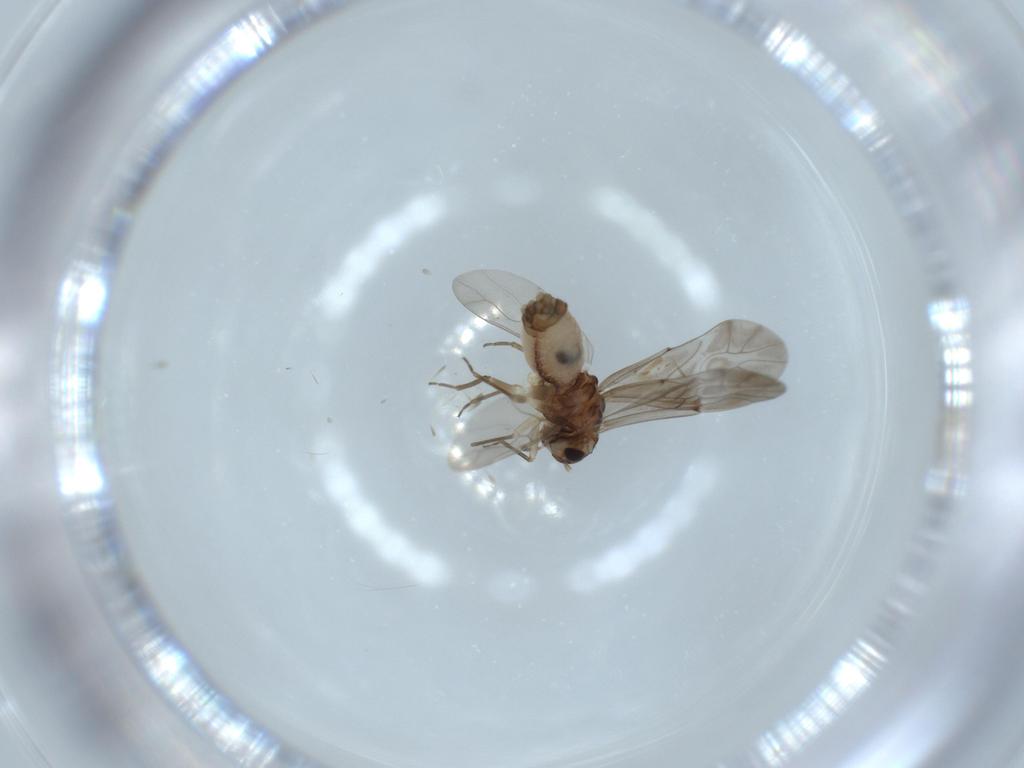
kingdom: Animalia
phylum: Arthropoda
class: Insecta
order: Psocodea
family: Lachesillidae
